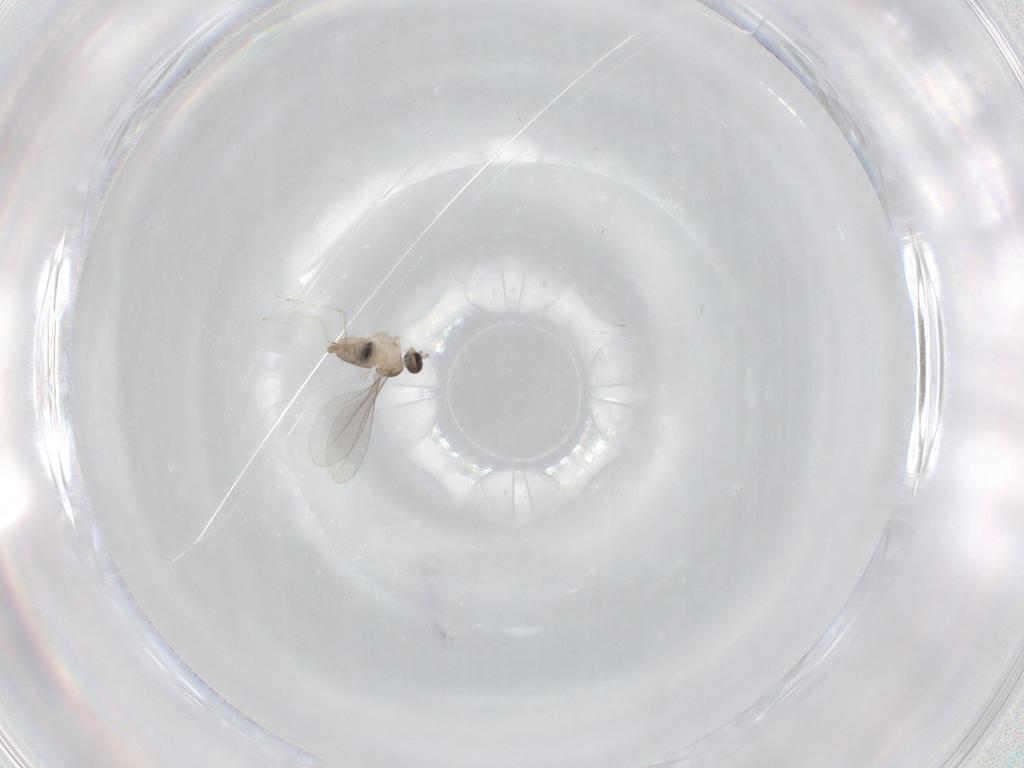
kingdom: Animalia
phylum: Arthropoda
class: Insecta
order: Diptera
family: Cecidomyiidae
